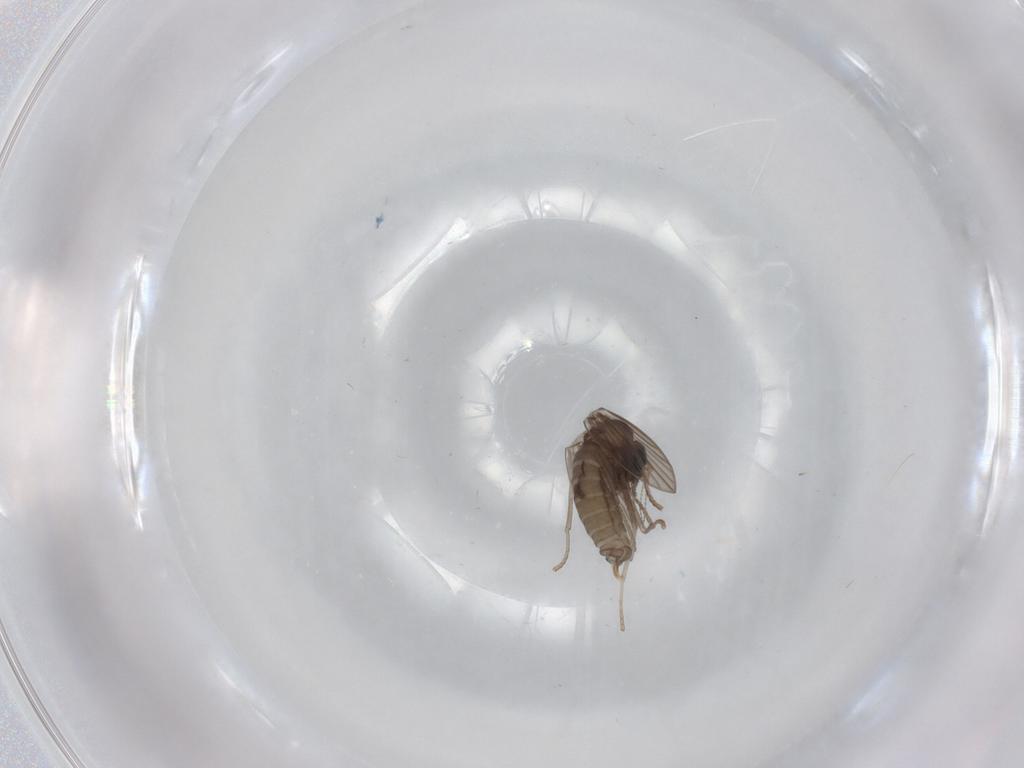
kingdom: Animalia
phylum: Arthropoda
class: Insecta
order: Diptera
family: Psychodidae
